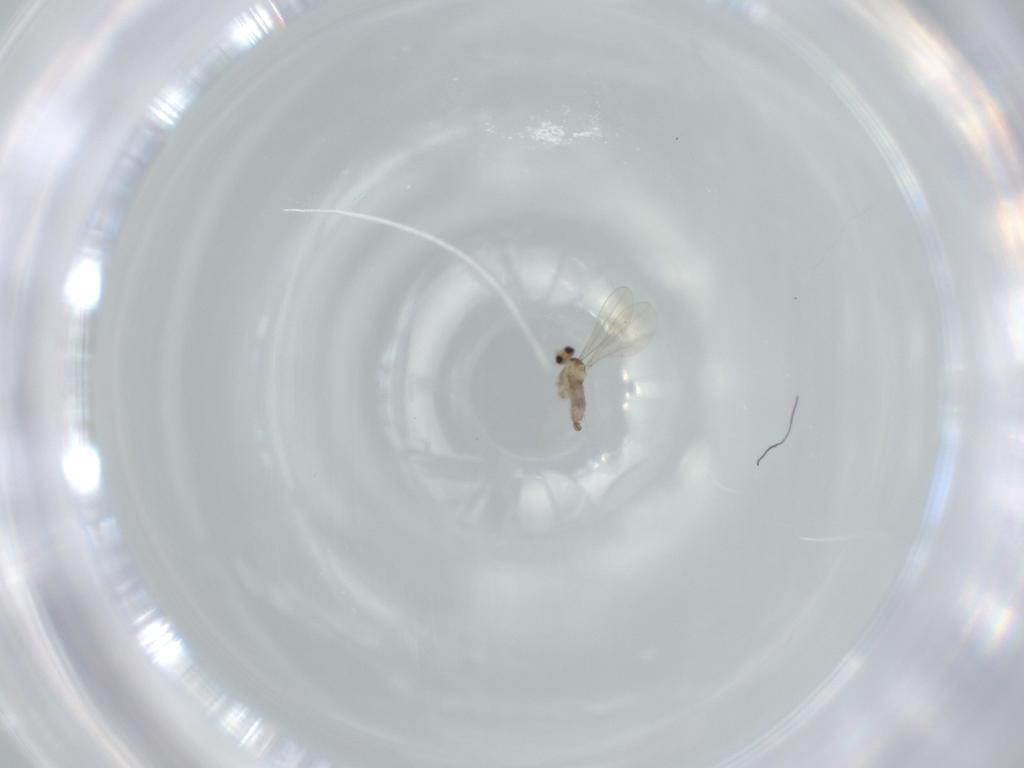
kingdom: Animalia
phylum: Arthropoda
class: Insecta
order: Diptera
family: Cecidomyiidae
